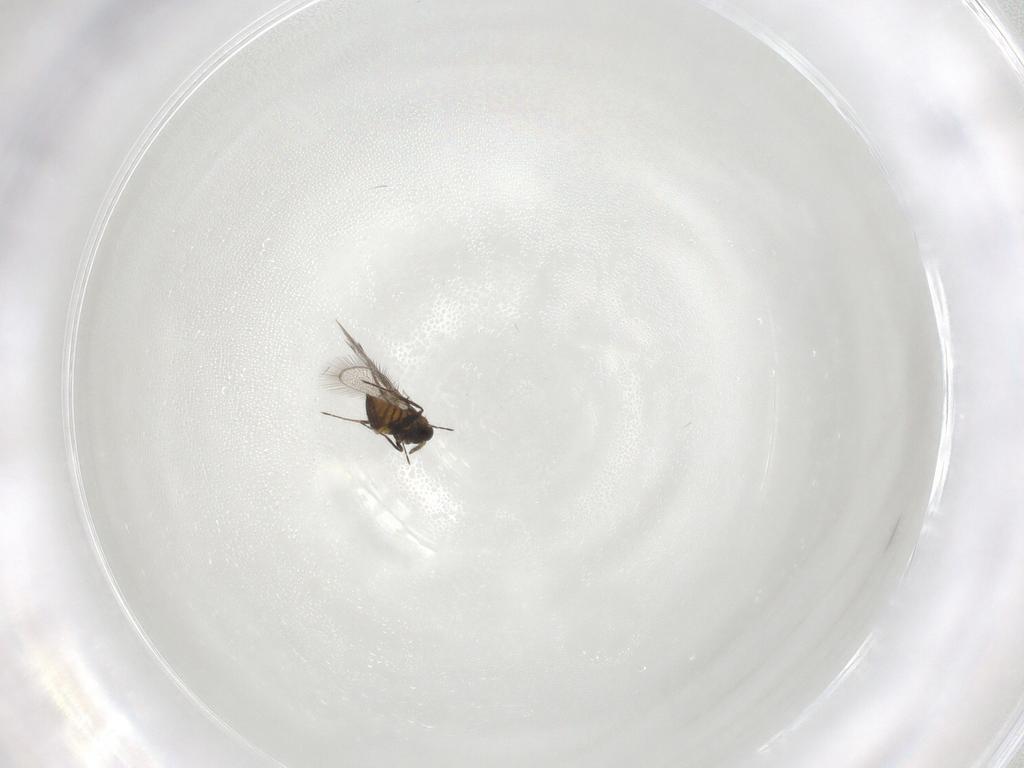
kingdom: Animalia
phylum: Arthropoda
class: Insecta
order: Hymenoptera
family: Trichogrammatidae
